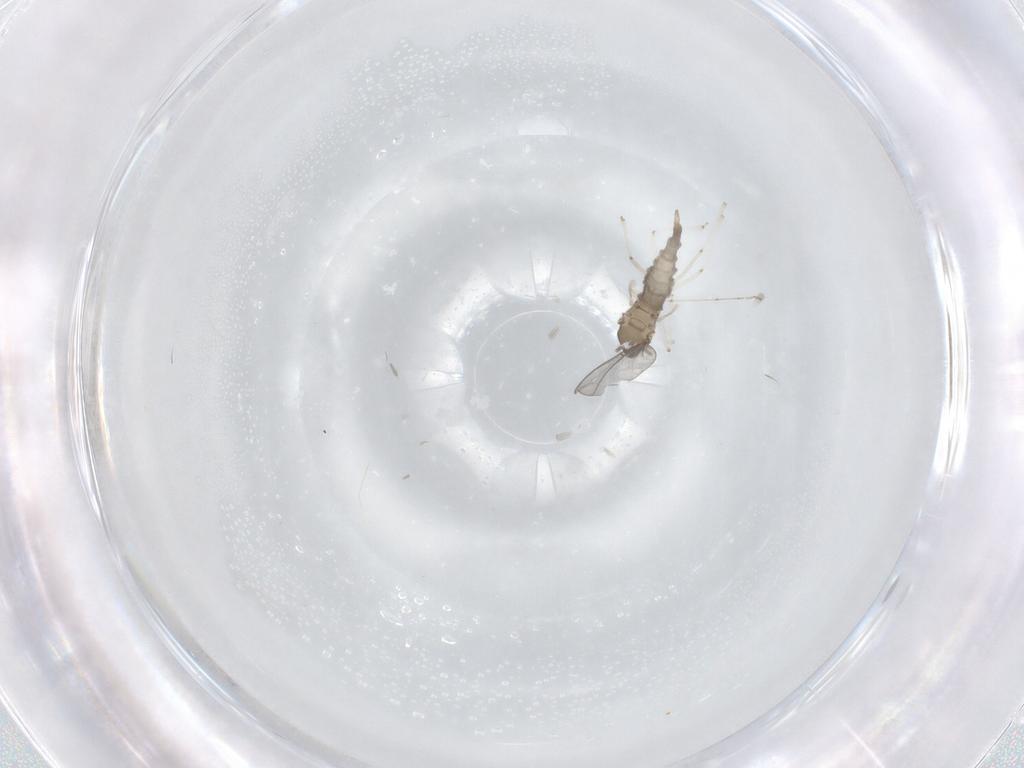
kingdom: Animalia
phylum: Arthropoda
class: Insecta
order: Diptera
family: Cecidomyiidae
